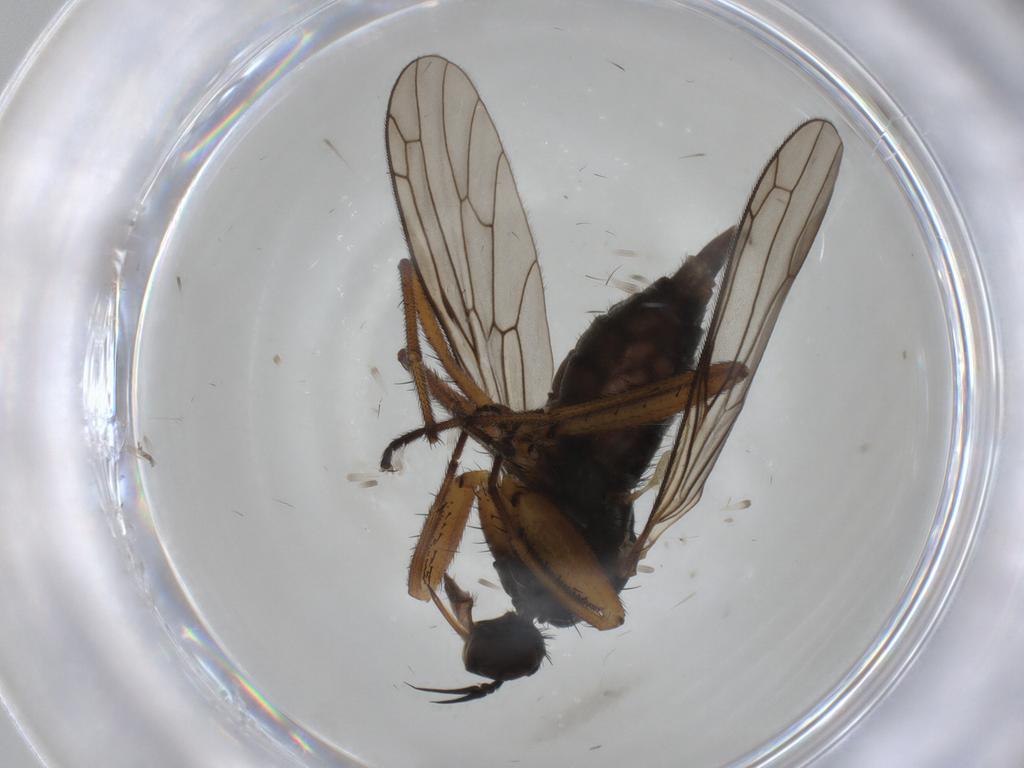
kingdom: Animalia
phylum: Arthropoda
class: Insecta
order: Diptera
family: Empididae
